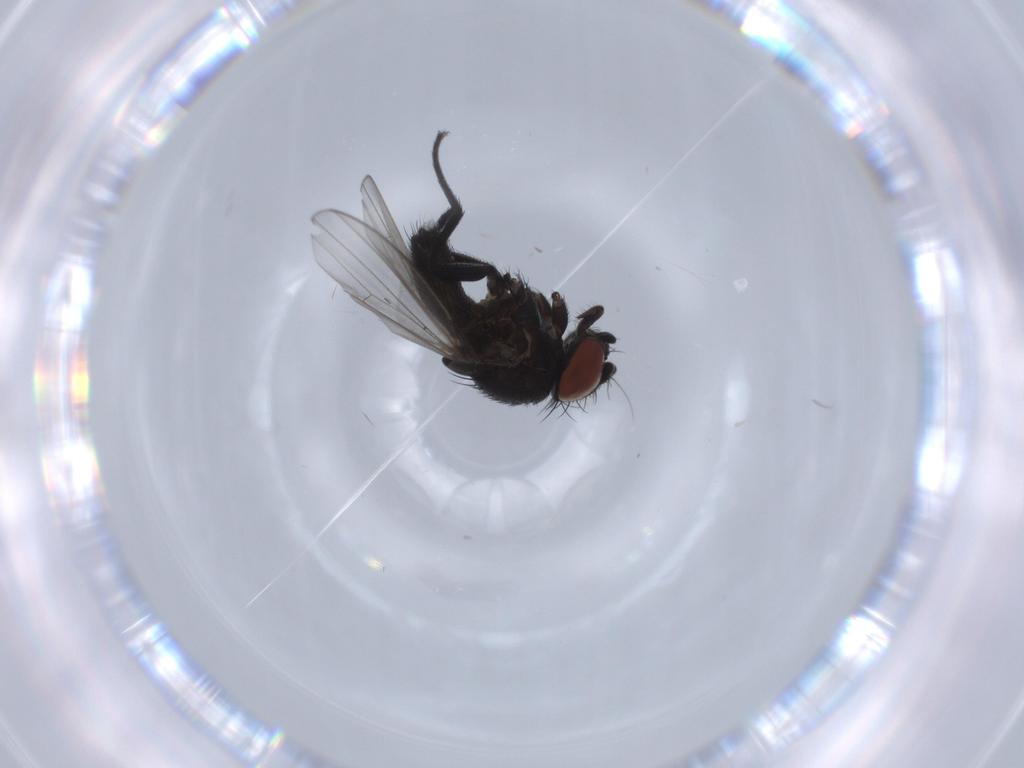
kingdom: Animalia
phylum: Arthropoda
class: Insecta
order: Diptera
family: Milichiidae
